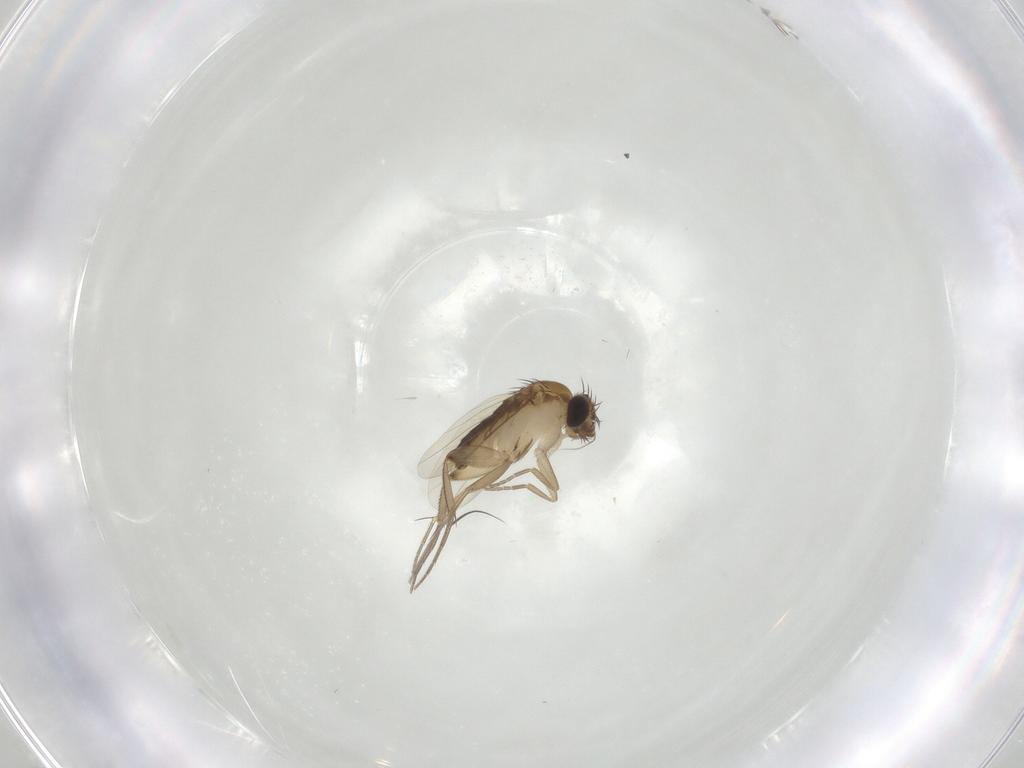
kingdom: Animalia
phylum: Arthropoda
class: Insecta
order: Diptera
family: Phoridae
